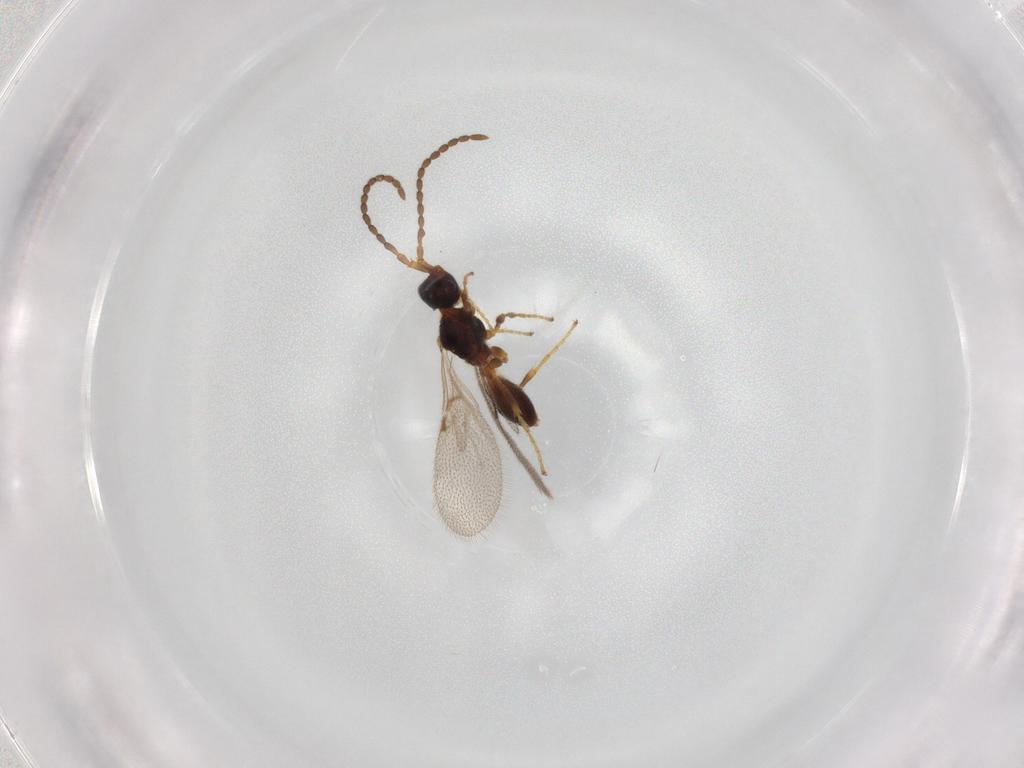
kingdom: Animalia
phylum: Arthropoda
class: Insecta
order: Hymenoptera
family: Diapriidae
